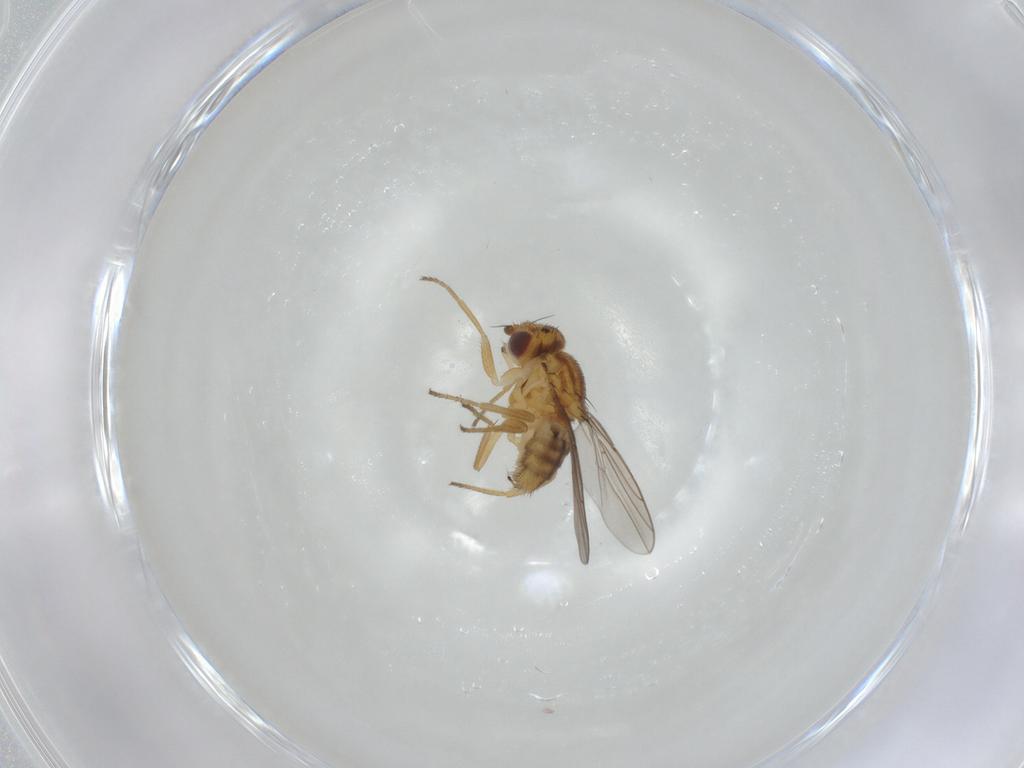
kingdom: Animalia
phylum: Arthropoda
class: Insecta
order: Diptera
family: Chloropidae
